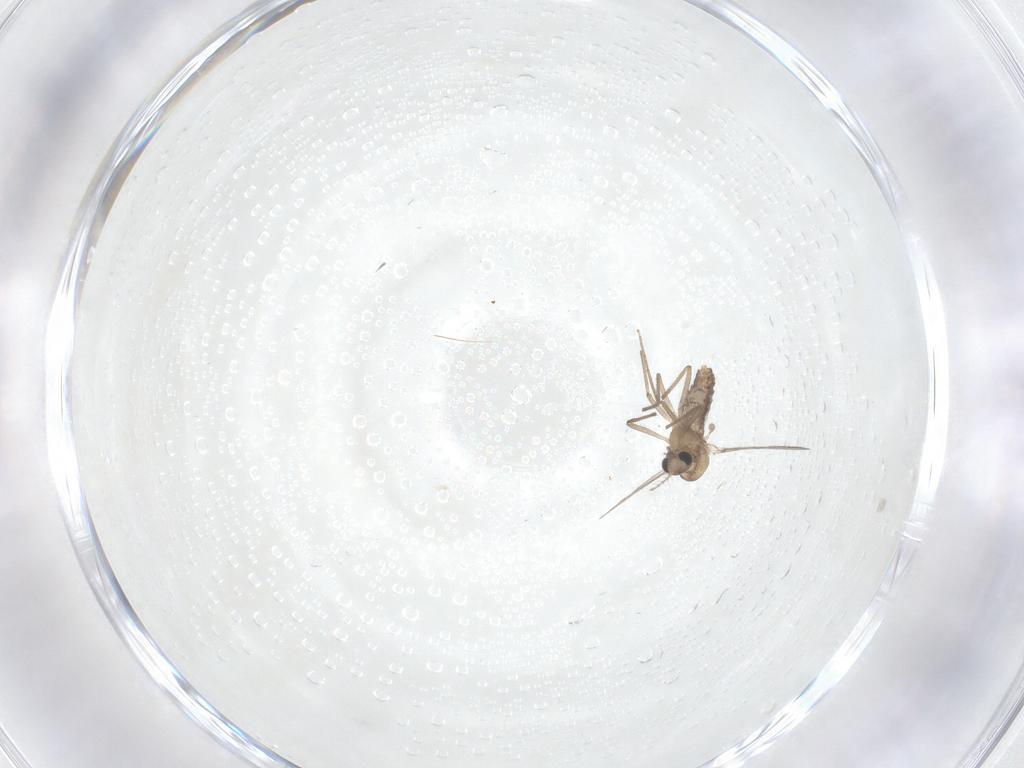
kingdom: Animalia
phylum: Arthropoda
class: Insecta
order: Diptera
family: Chironomidae
